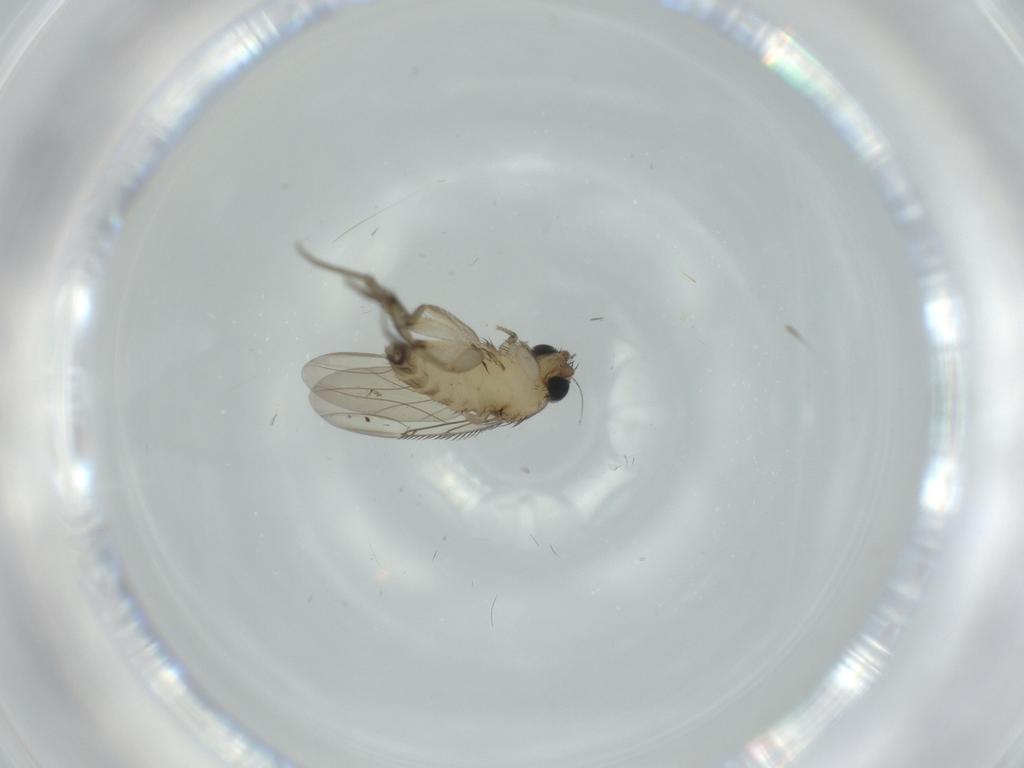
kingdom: Animalia
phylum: Arthropoda
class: Insecta
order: Diptera
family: Phoridae
